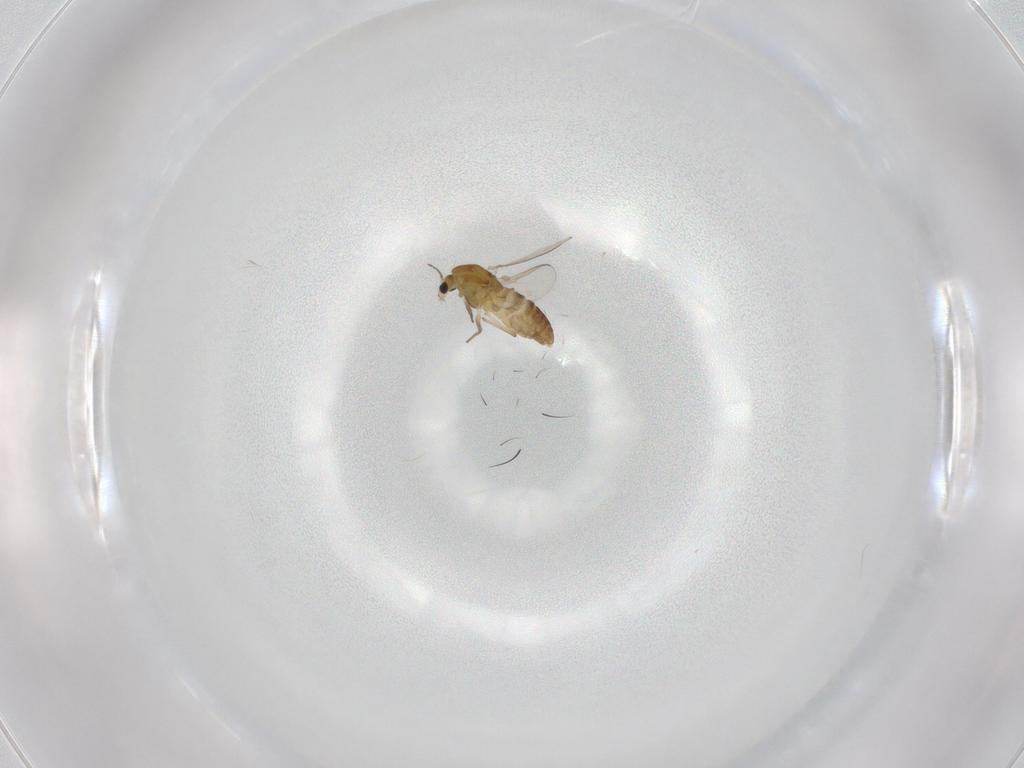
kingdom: Animalia
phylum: Arthropoda
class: Insecta
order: Diptera
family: Chironomidae
